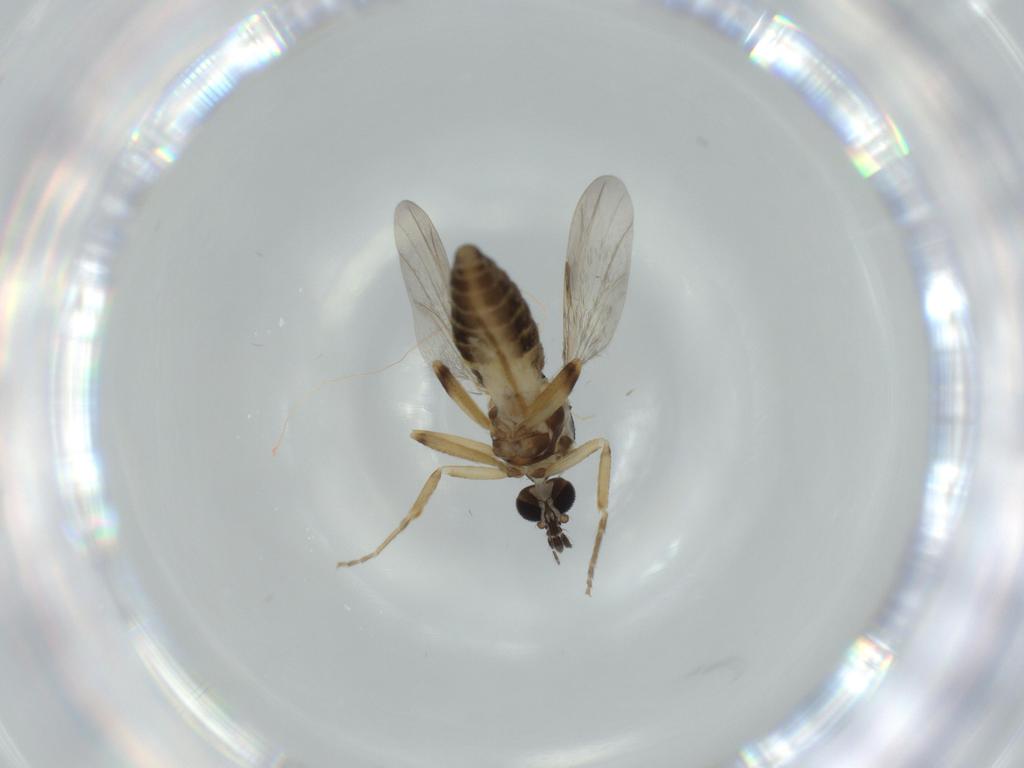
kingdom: Animalia
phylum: Arthropoda
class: Insecta
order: Diptera
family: Ceratopogonidae
